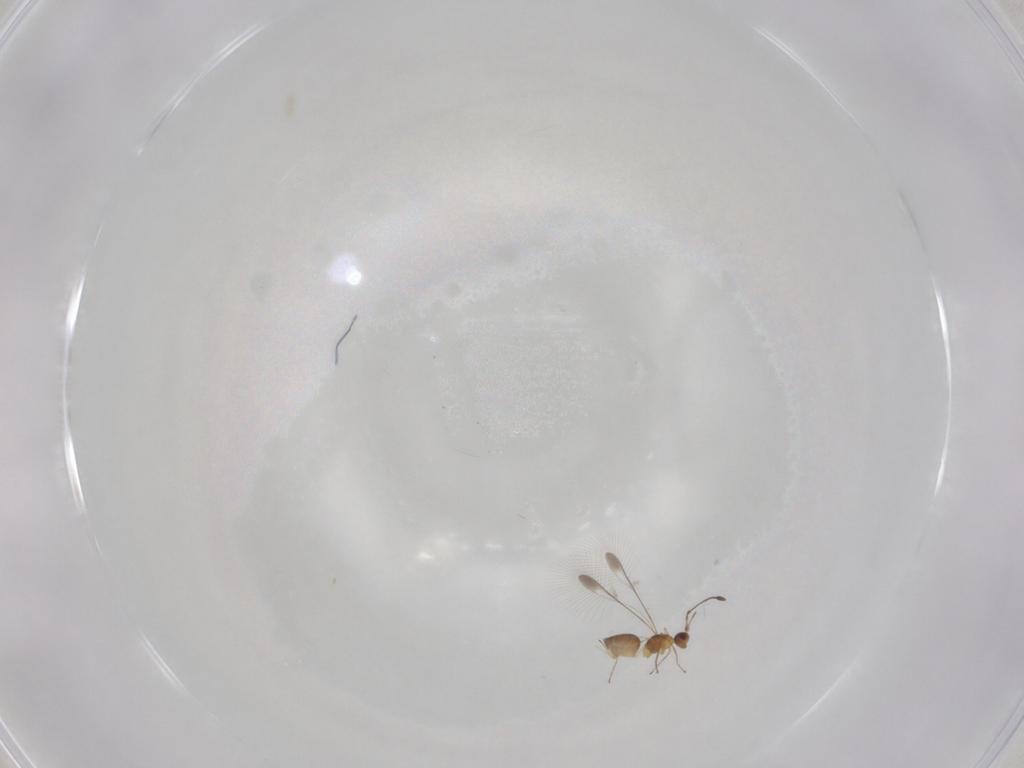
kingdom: Animalia
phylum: Arthropoda
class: Insecta
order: Hymenoptera
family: Mymaridae
